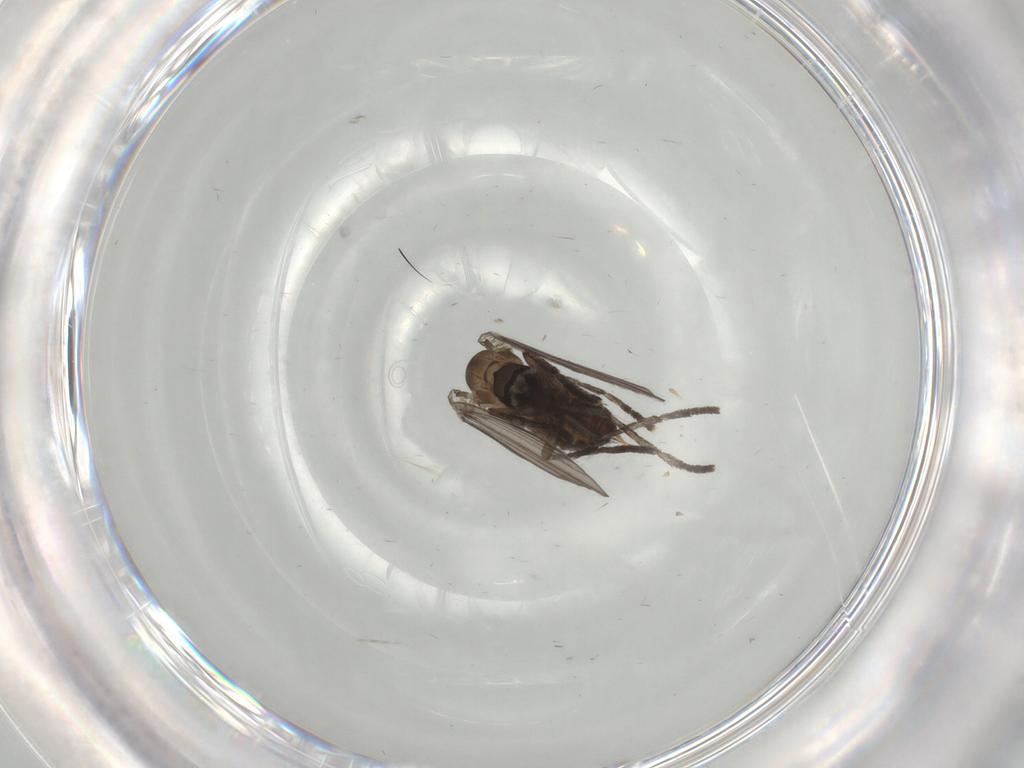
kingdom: Animalia
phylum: Arthropoda
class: Insecta
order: Diptera
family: Psychodidae
